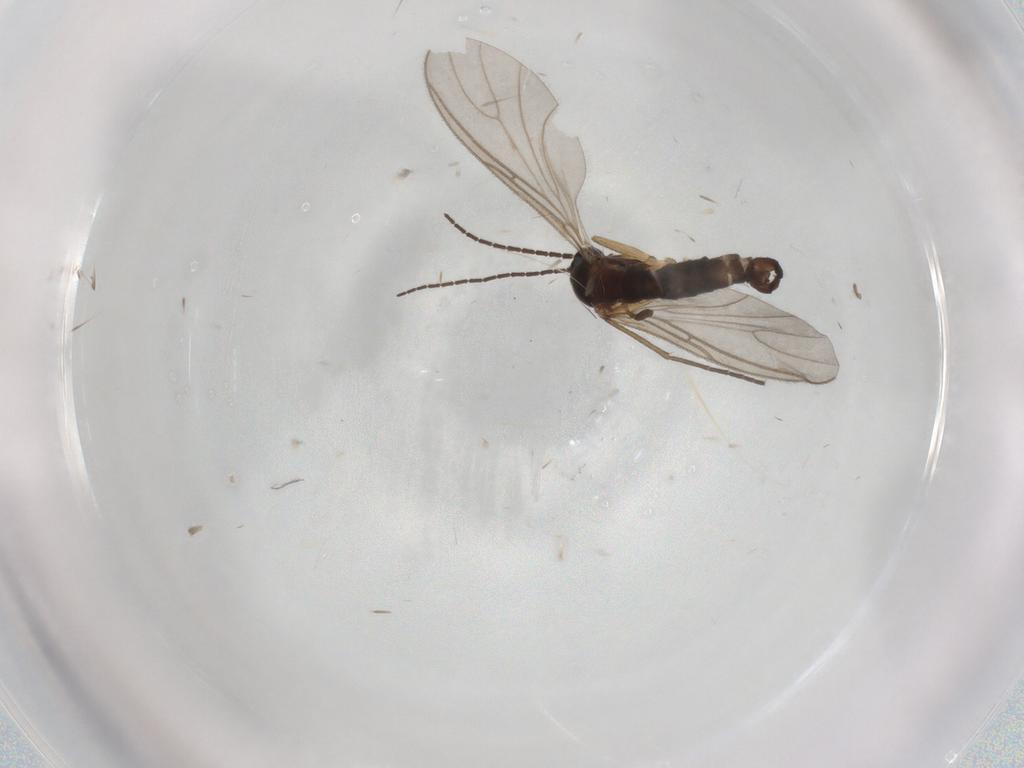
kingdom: Animalia
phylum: Arthropoda
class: Insecta
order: Diptera
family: Sciaridae
